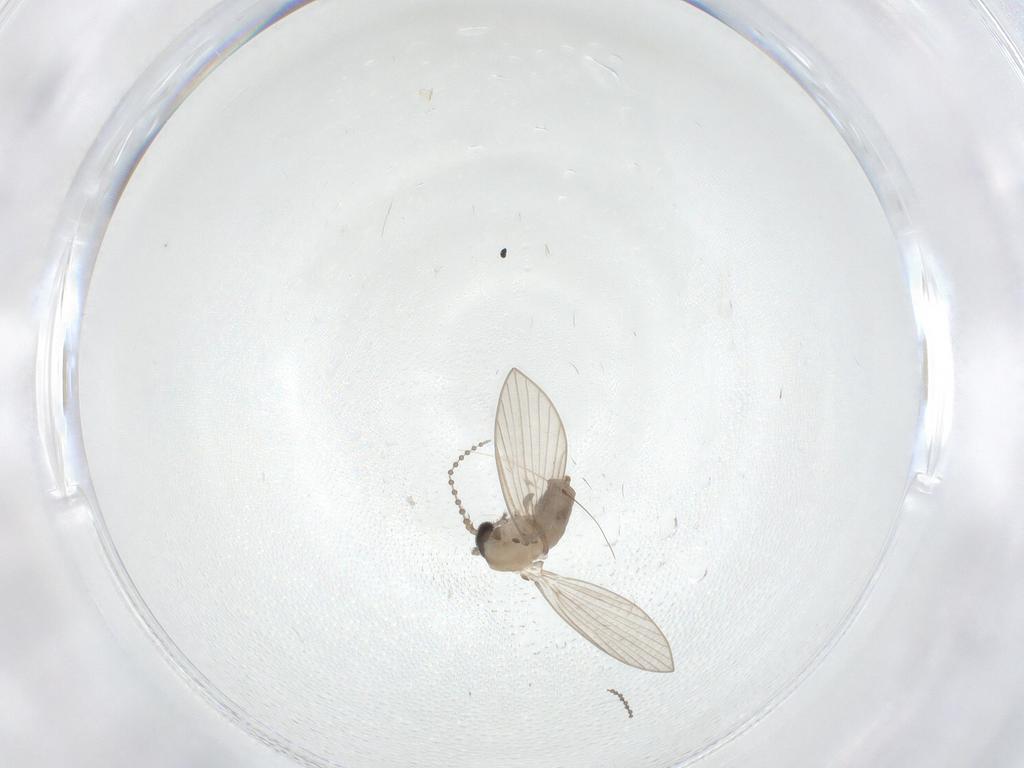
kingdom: Animalia
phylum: Arthropoda
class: Insecta
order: Diptera
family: Psychodidae
